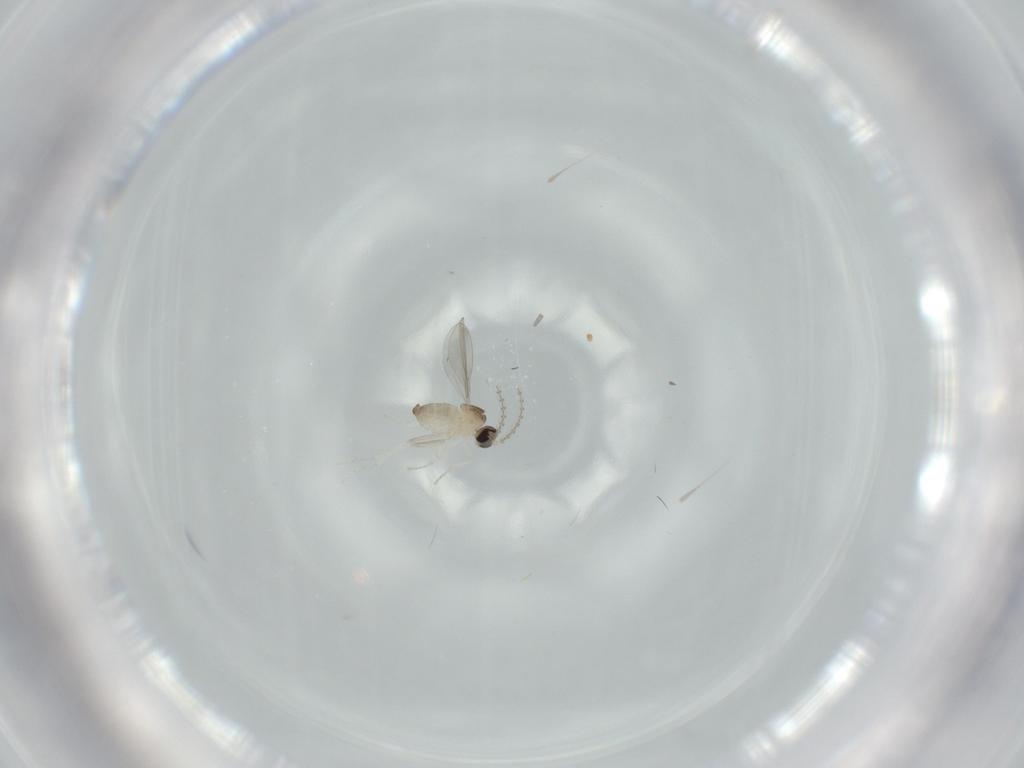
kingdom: Animalia
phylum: Arthropoda
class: Insecta
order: Diptera
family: Cecidomyiidae
